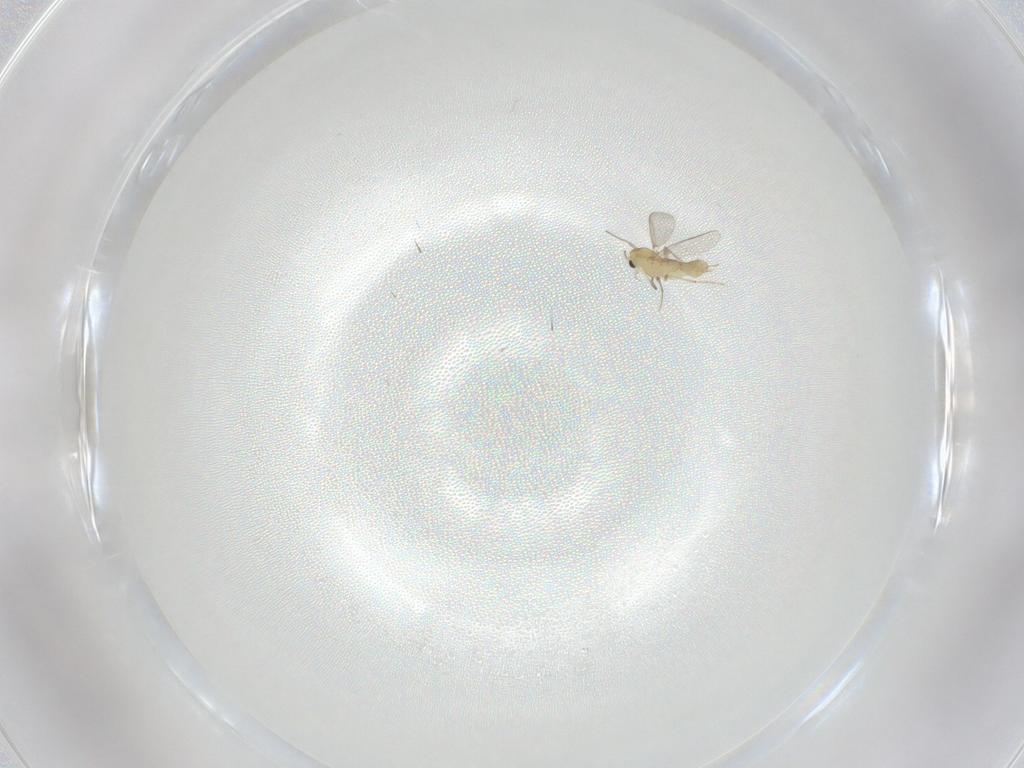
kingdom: Animalia
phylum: Arthropoda
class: Insecta
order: Diptera
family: Chironomidae
